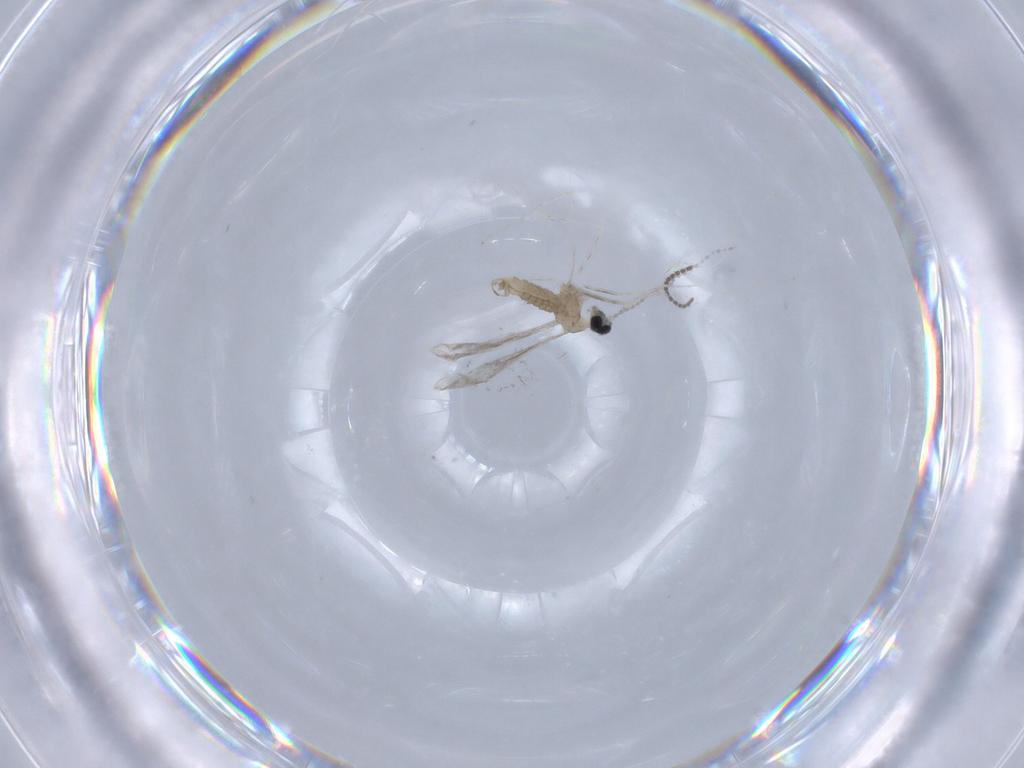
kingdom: Animalia
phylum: Arthropoda
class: Insecta
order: Diptera
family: Cecidomyiidae
